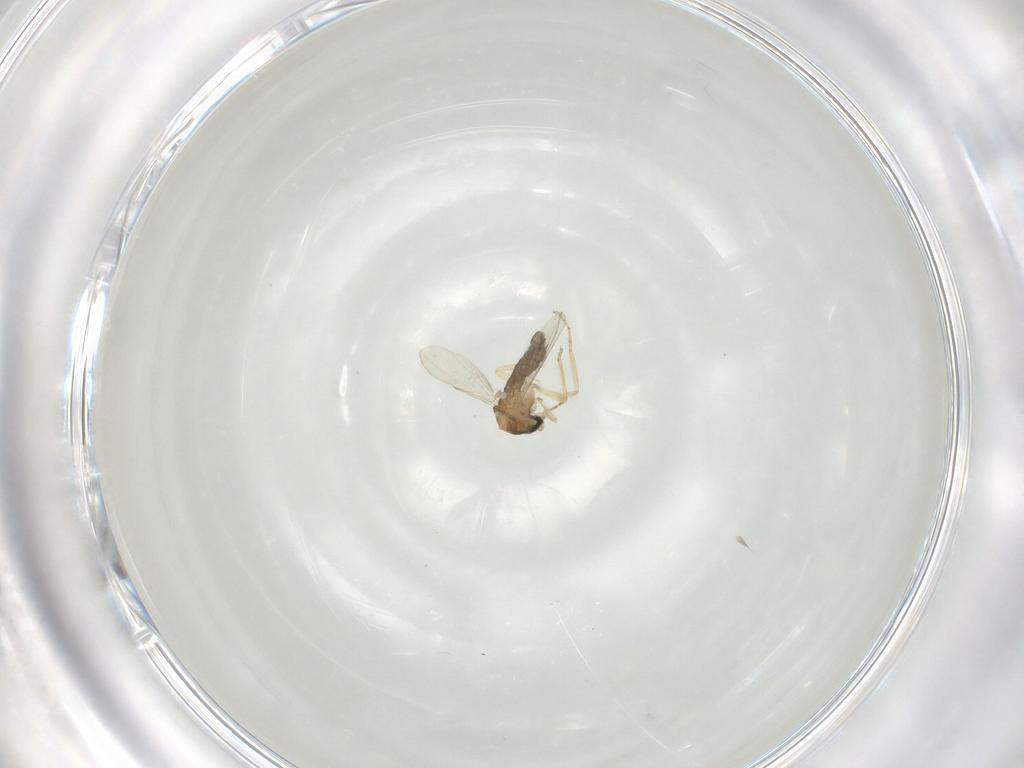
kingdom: Animalia
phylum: Arthropoda
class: Insecta
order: Diptera
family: Ceratopogonidae
